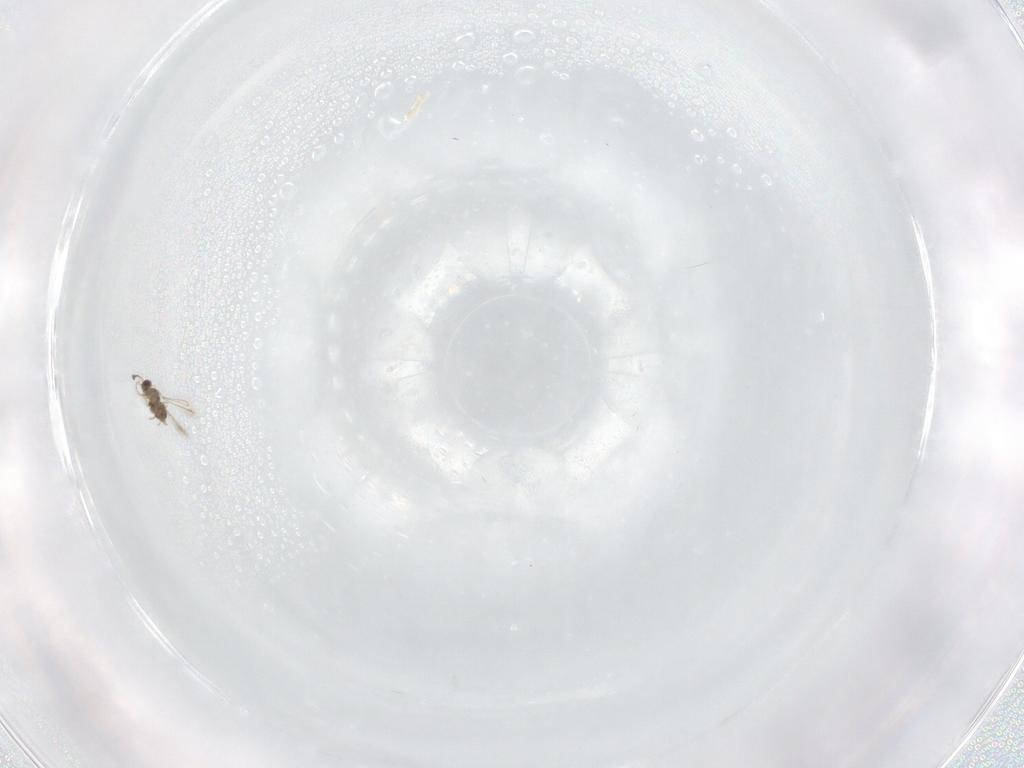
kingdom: Animalia
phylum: Arthropoda
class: Insecta
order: Hymenoptera
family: Eulophidae
